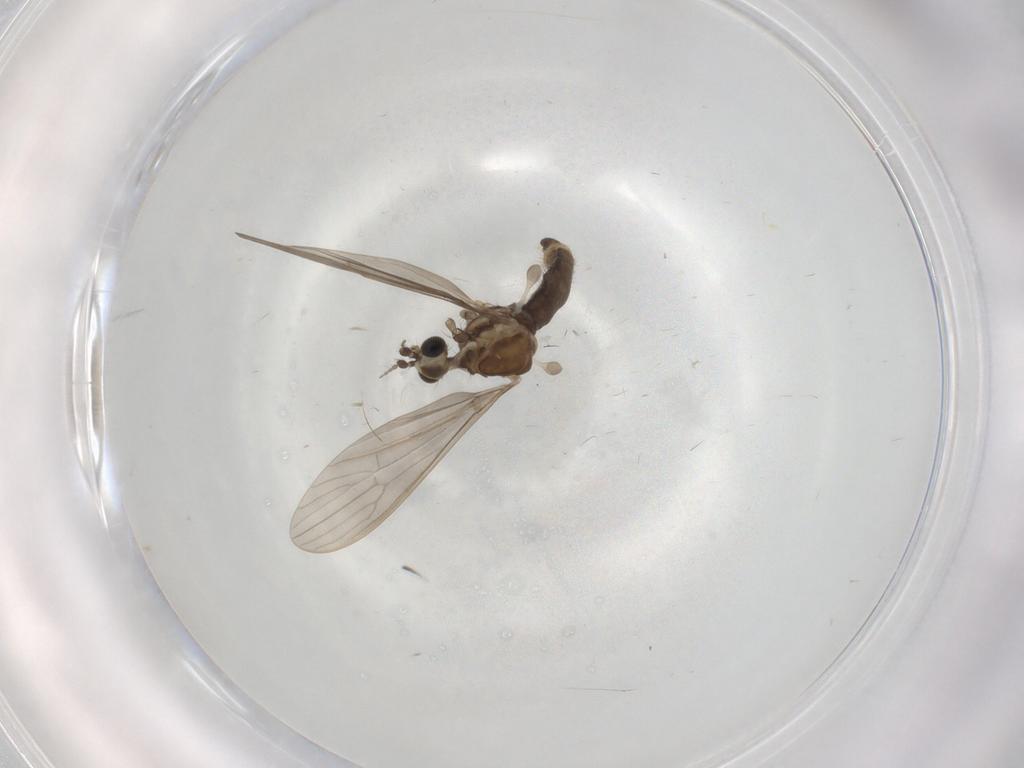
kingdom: Animalia
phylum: Arthropoda
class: Insecta
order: Diptera
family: Limoniidae
